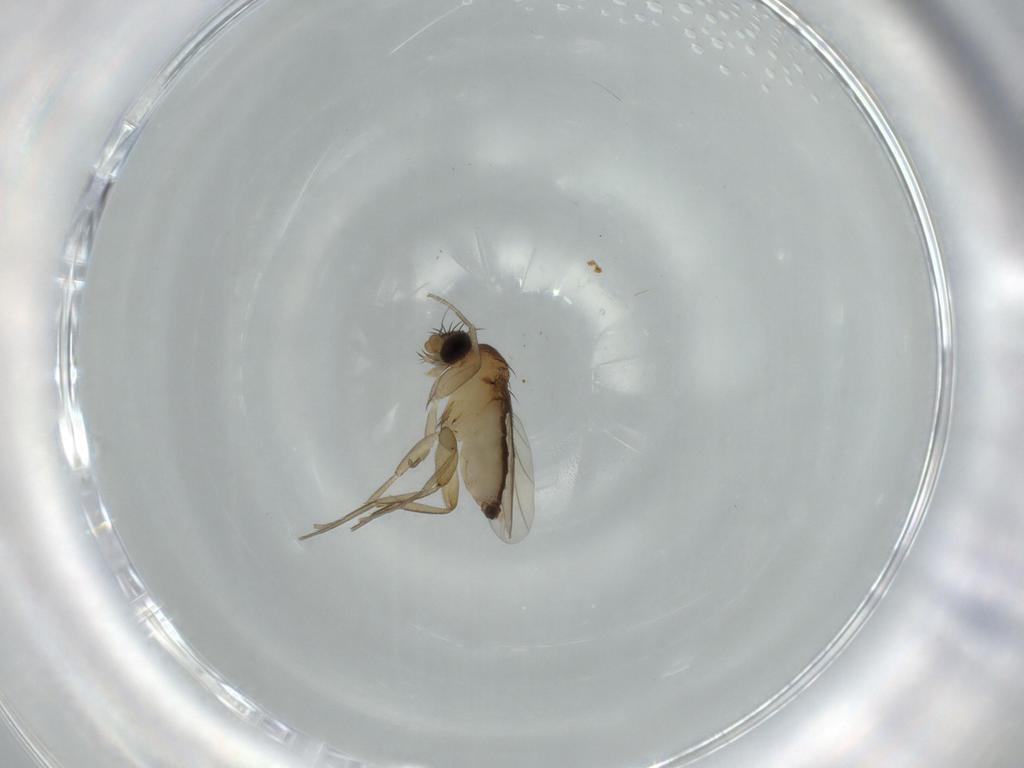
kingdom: Animalia
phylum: Arthropoda
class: Insecta
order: Diptera
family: Phoridae
